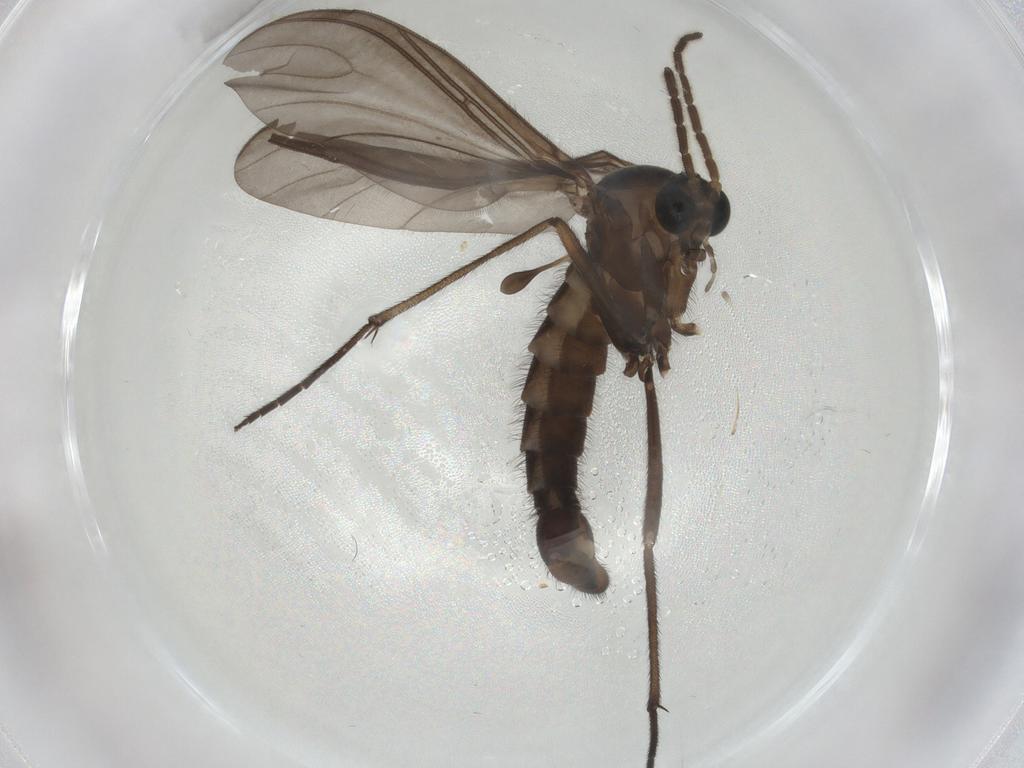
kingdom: Animalia
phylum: Arthropoda
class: Insecta
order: Diptera
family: Sciaridae
